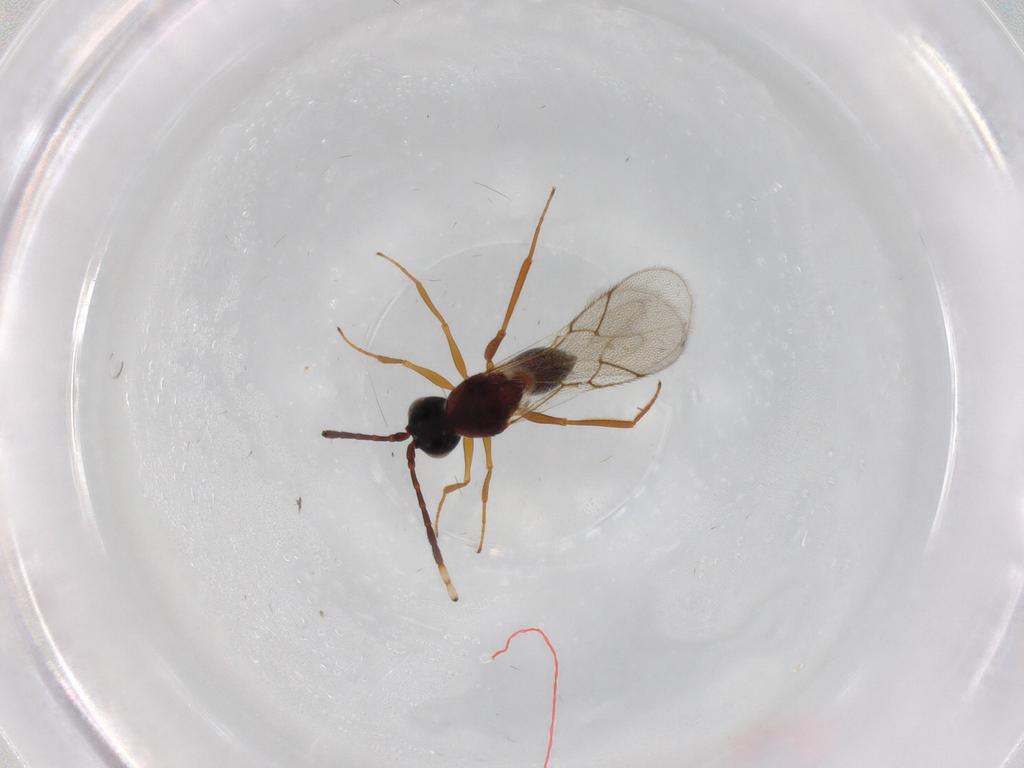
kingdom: Animalia
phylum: Arthropoda
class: Insecta
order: Hymenoptera
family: Figitidae
